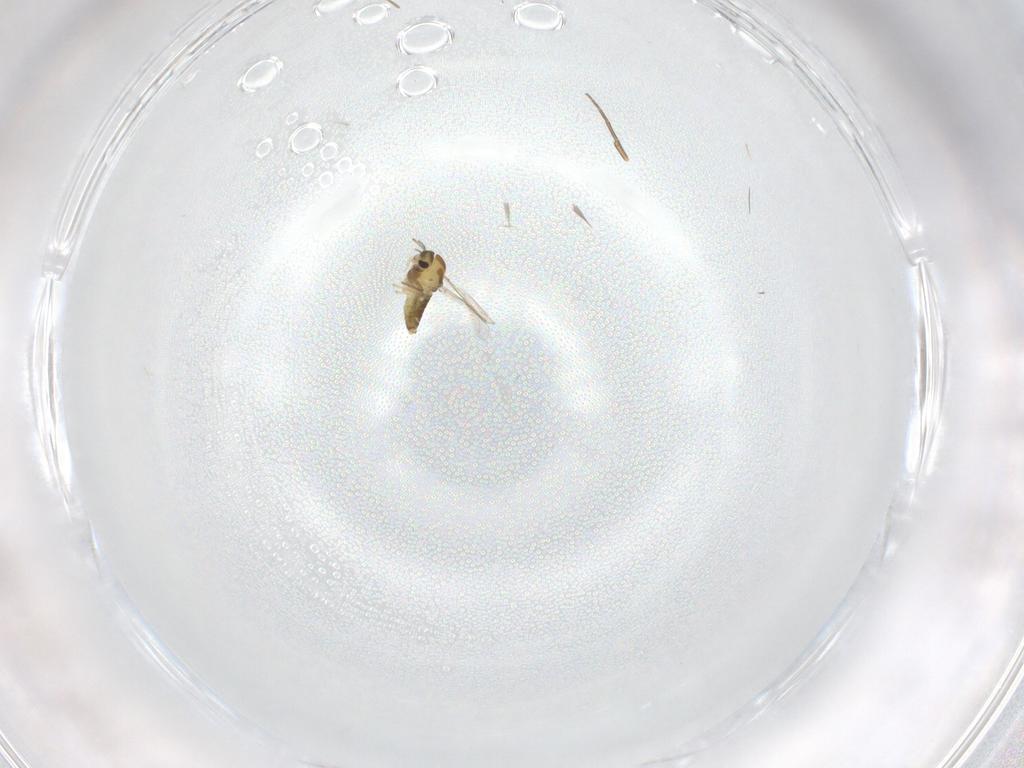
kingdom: Animalia
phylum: Arthropoda
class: Insecta
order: Diptera
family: Chironomidae
